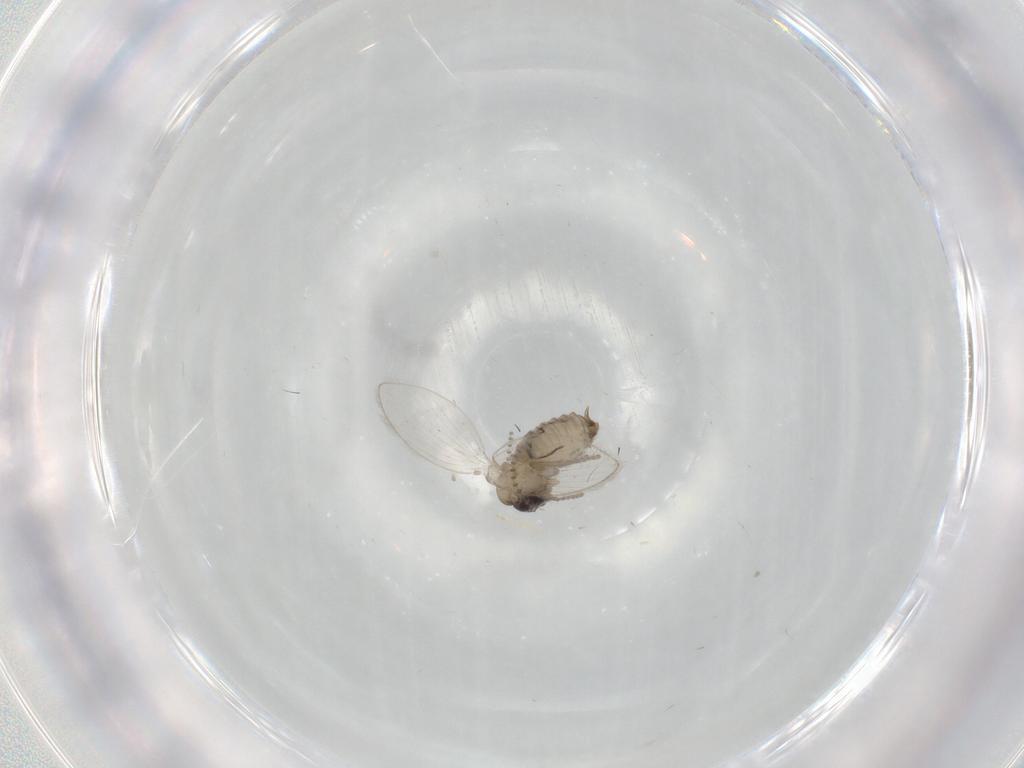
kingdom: Animalia
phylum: Arthropoda
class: Insecta
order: Diptera
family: Psychodidae
